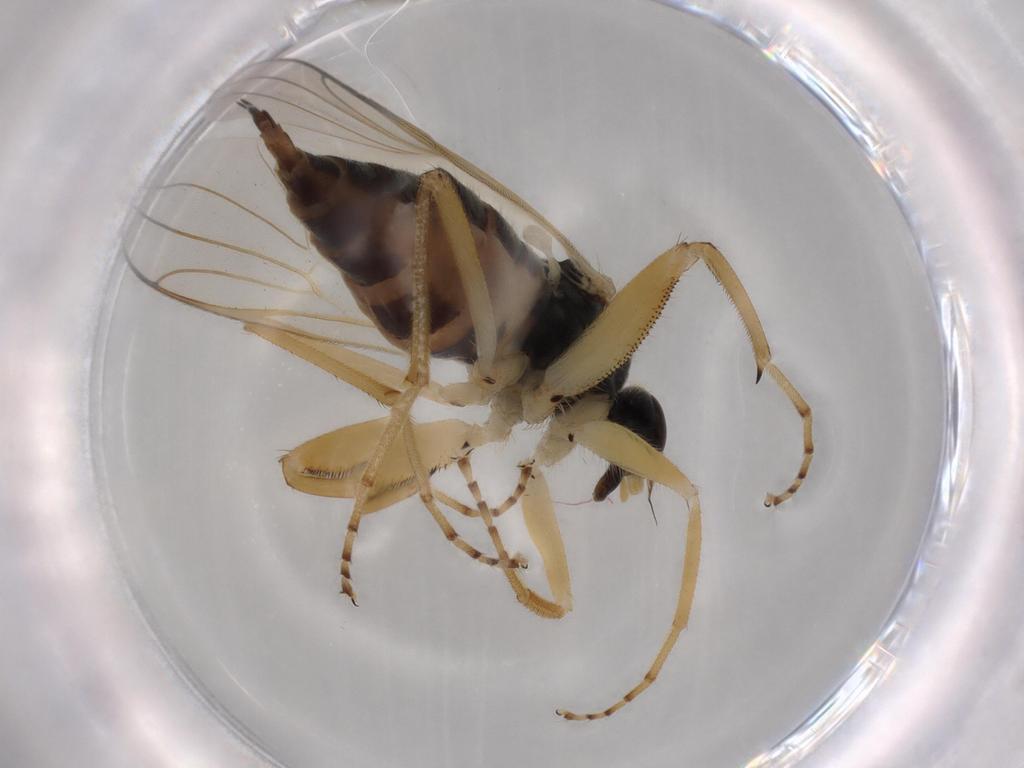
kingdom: Animalia
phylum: Arthropoda
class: Insecta
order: Diptera
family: Hybotidae
